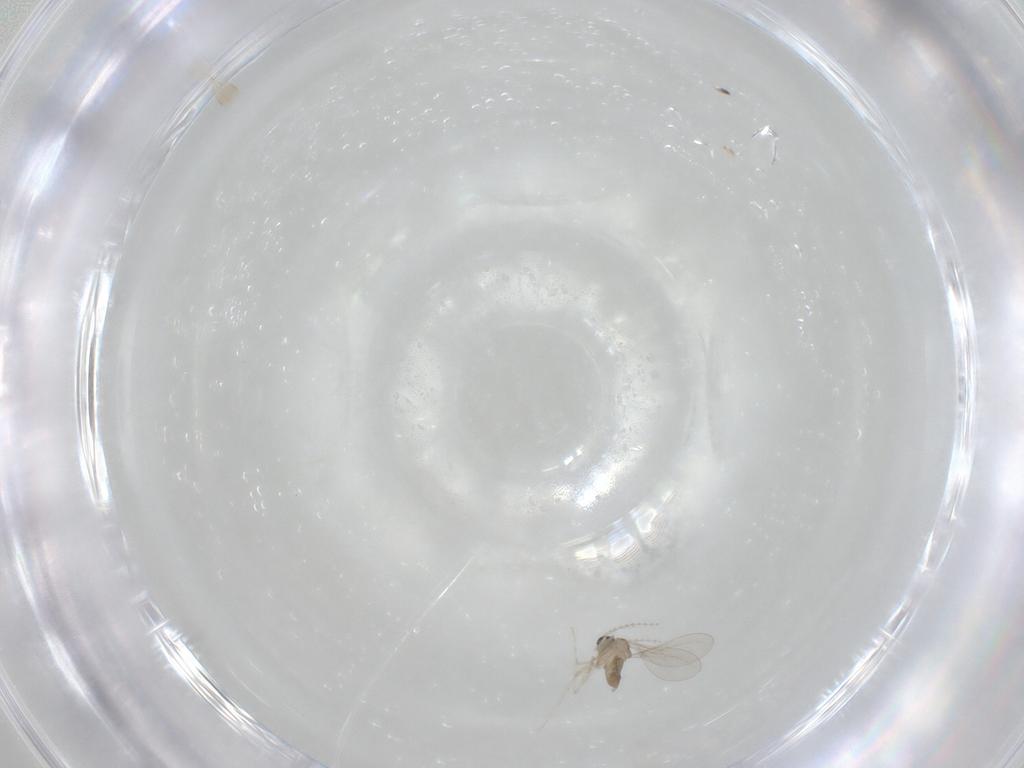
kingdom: Animalia
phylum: Arthropoda
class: Insecta
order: Diptera
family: Cecidomyiidae
